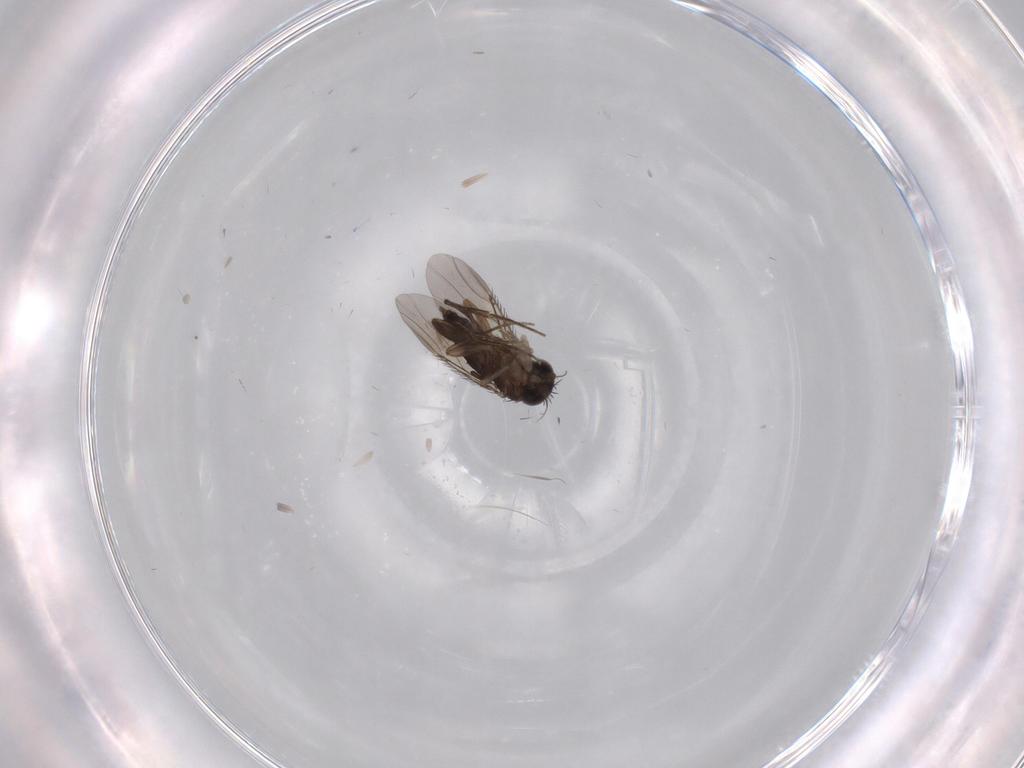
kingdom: Animalia
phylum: Arthropoda
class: Insecta
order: Diptera
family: Phoridae
